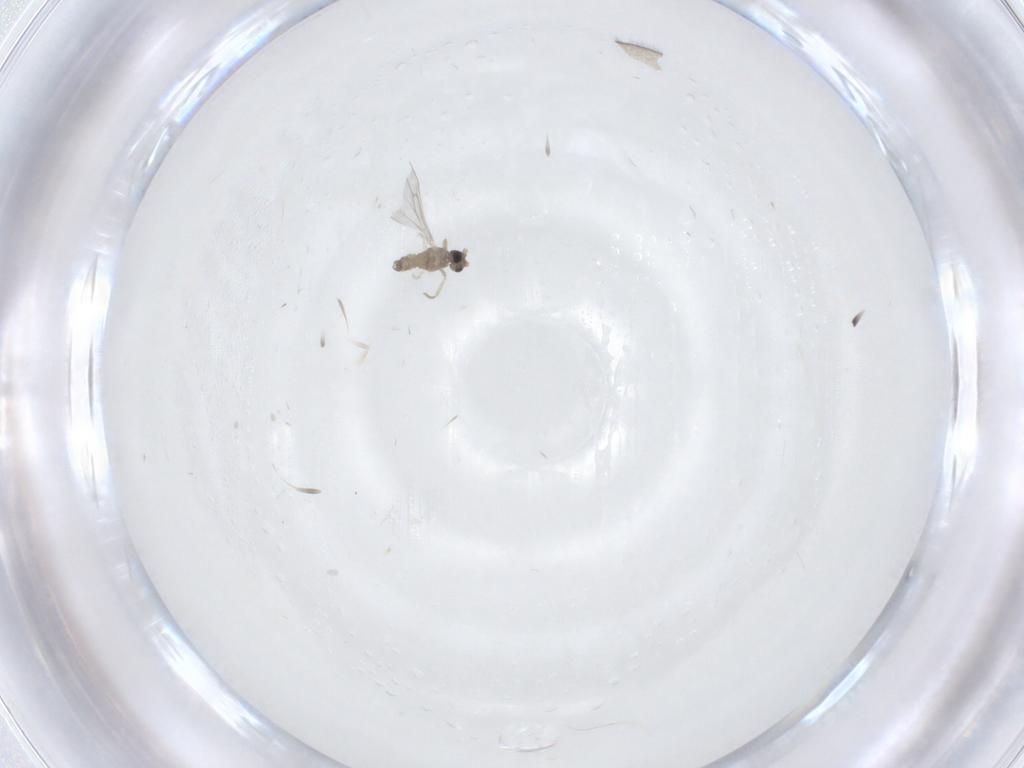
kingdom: Animalia
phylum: Arthropoda
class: Insecta
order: Diptera
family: Cecidomyiidae
